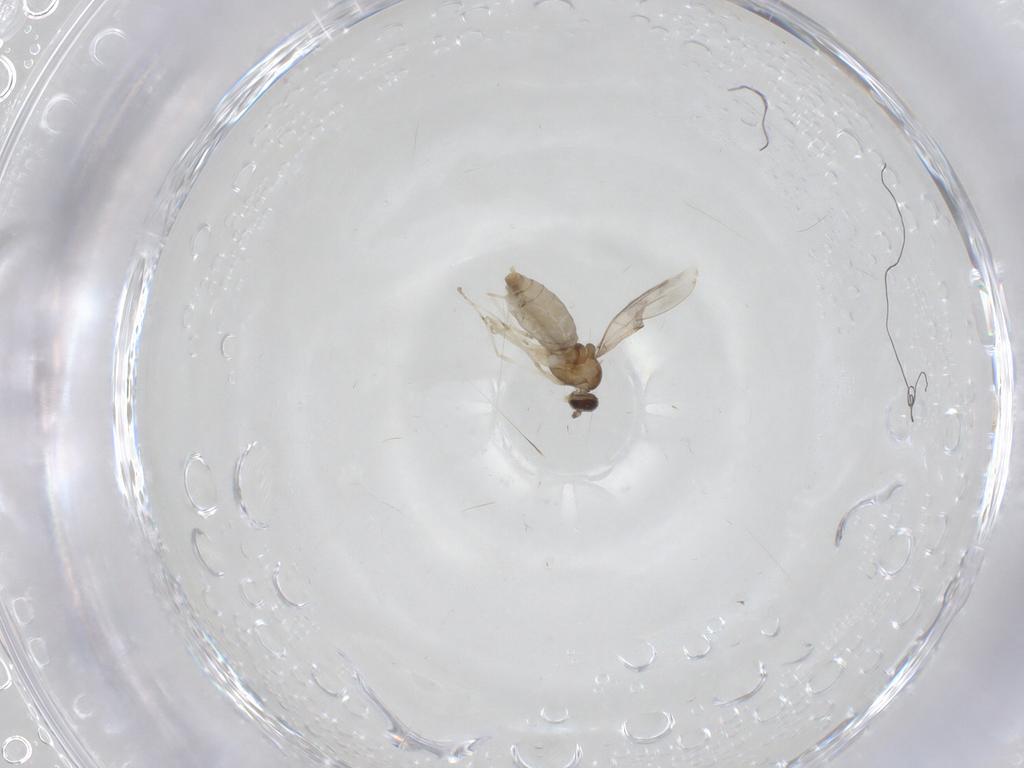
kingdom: Animalia
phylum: Arthropoda
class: Insecta
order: Diptera
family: Cecidomyiidae
